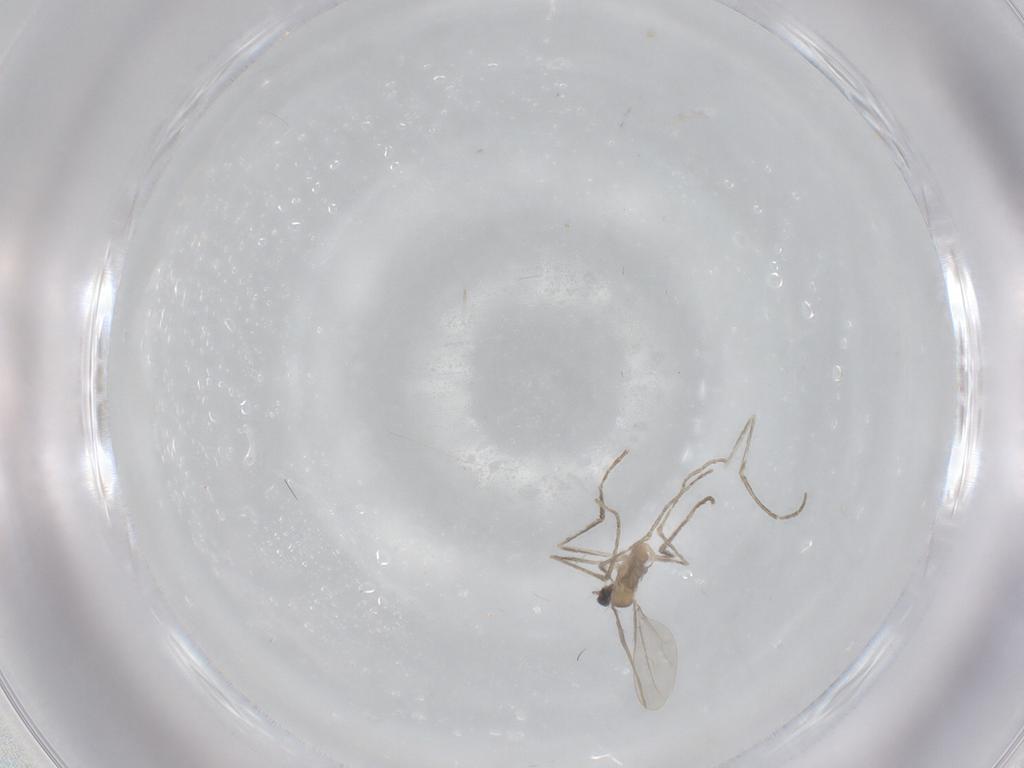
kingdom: Animalia
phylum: Arthropoda
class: Insecta
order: Diptera
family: Cecidomyiidae
